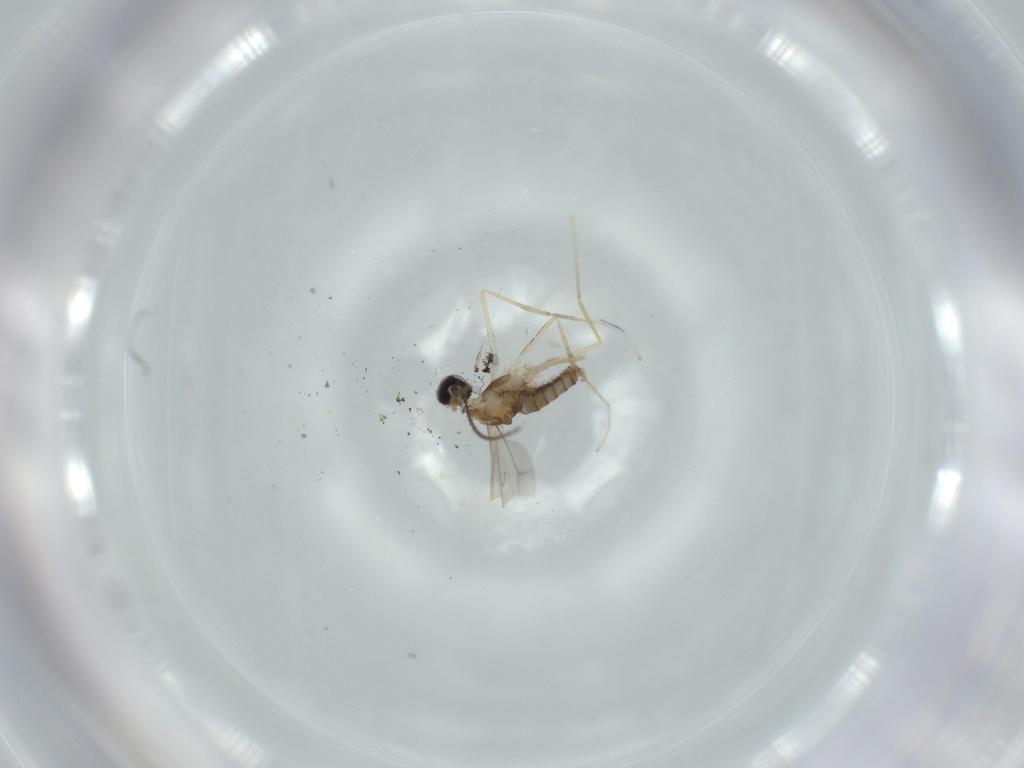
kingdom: Animalia
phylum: Arthropoda
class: Insecta
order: Diptera
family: Cecidomyiidae
